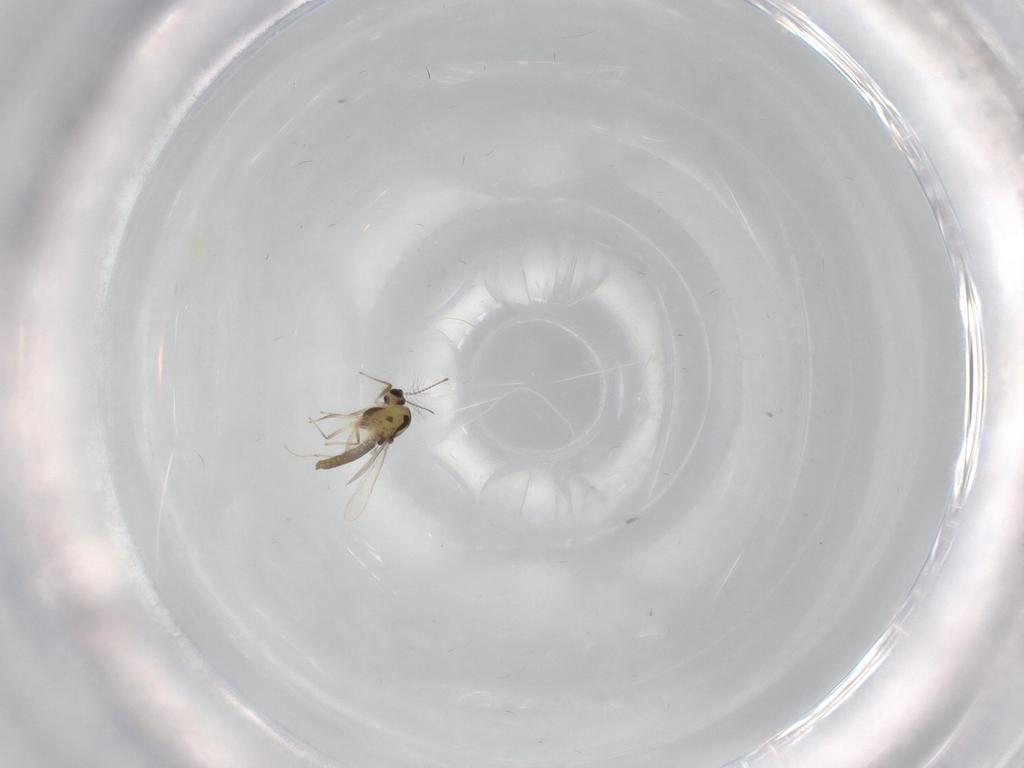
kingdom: Animalia
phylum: Arthropoda
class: Insecta
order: Diptera
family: Chironomidae
